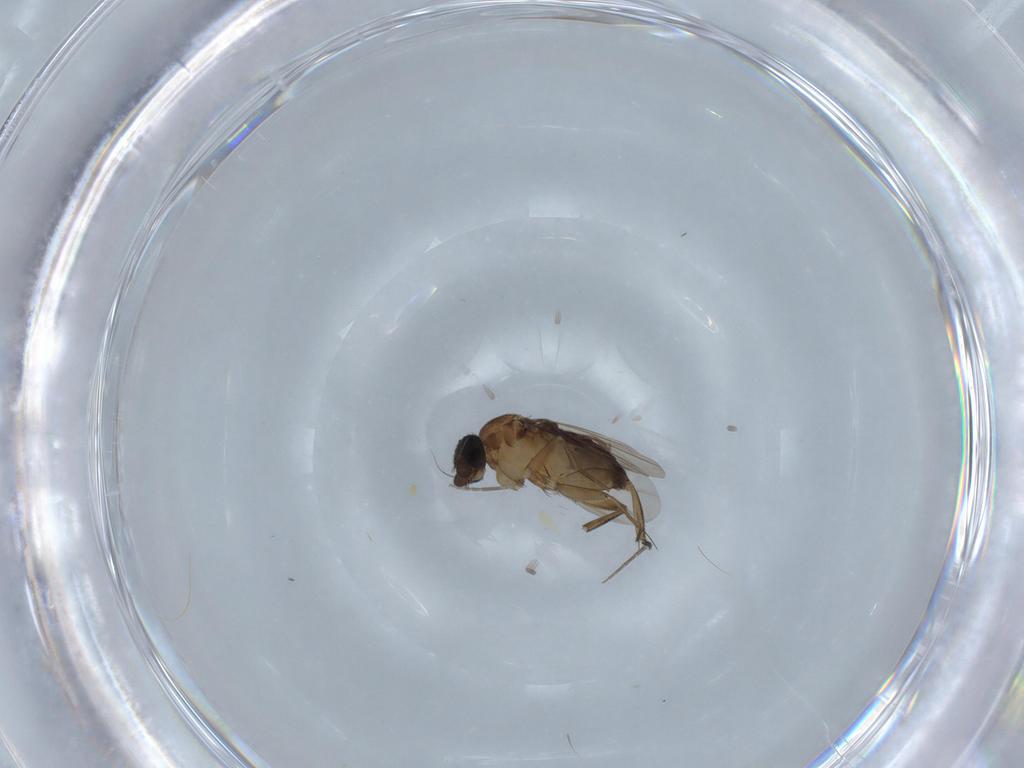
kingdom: Animalia
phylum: Arthropoda
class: Insecta
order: Diptera
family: Phoridae
